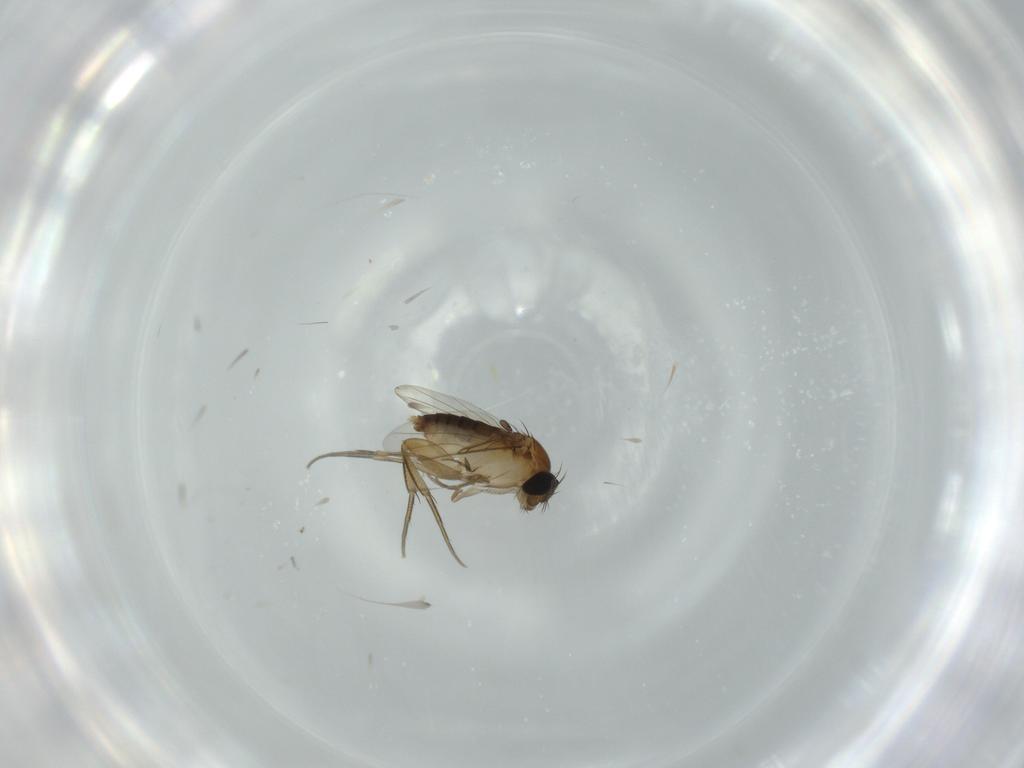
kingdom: Animalia
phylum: Arthropoda
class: Insecta
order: Diptera
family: Phoridae
